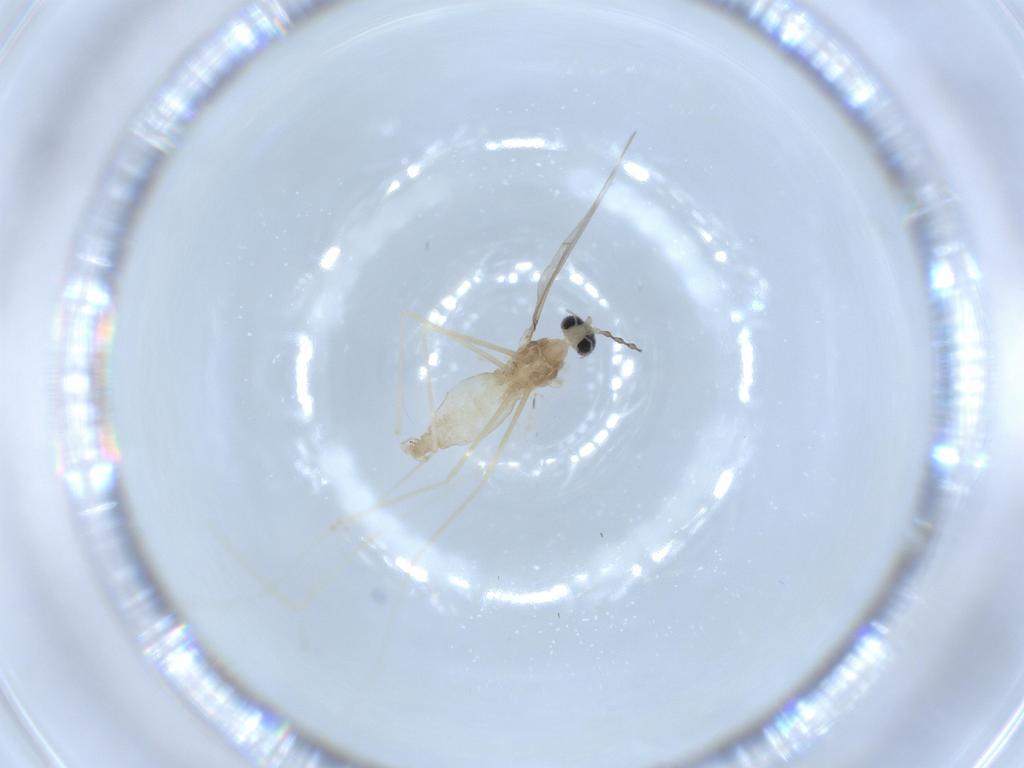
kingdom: Animalia
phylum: Arthropoda
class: Insecta
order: Diptera
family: Cecidomyiidae
